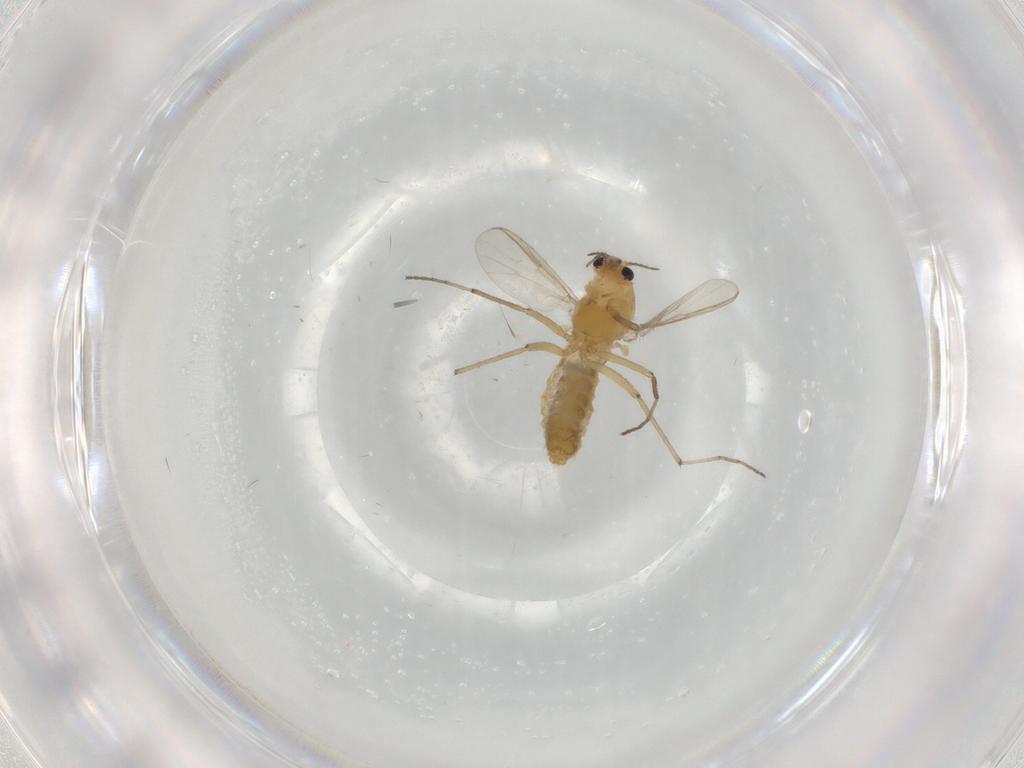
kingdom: Animalia
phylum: Arthropoda
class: Insecta
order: Diptera
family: Chironomidae
